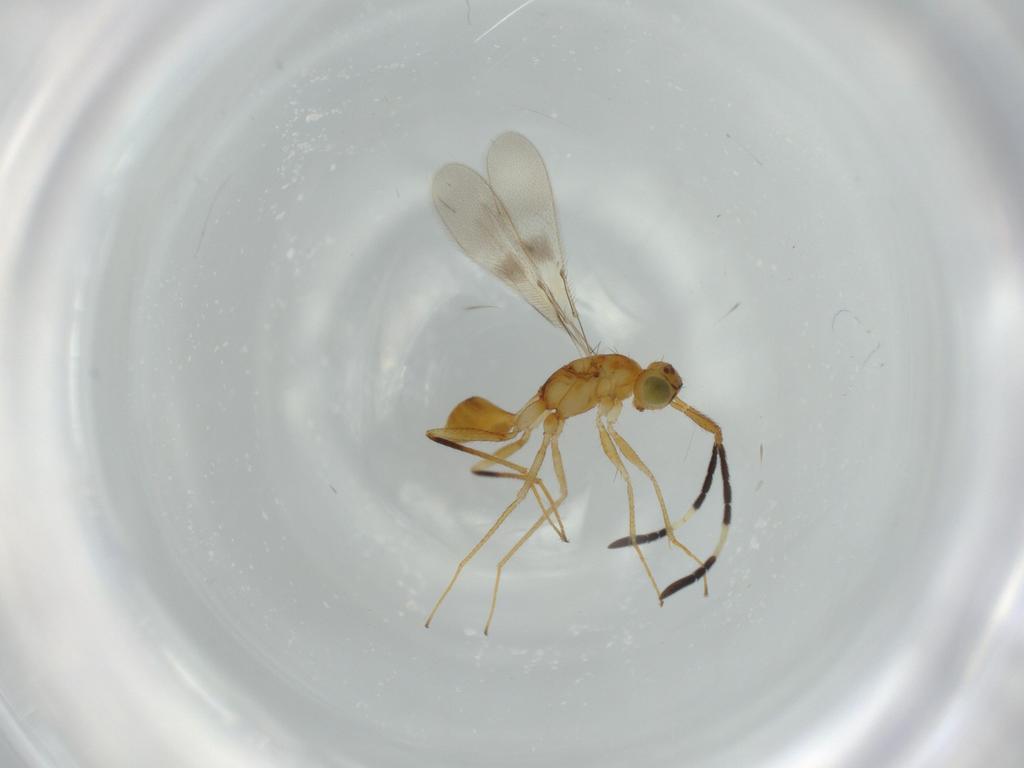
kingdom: Animalia
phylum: Arthropoda
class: Insecta
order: Hymenoptera
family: Mymaridae
